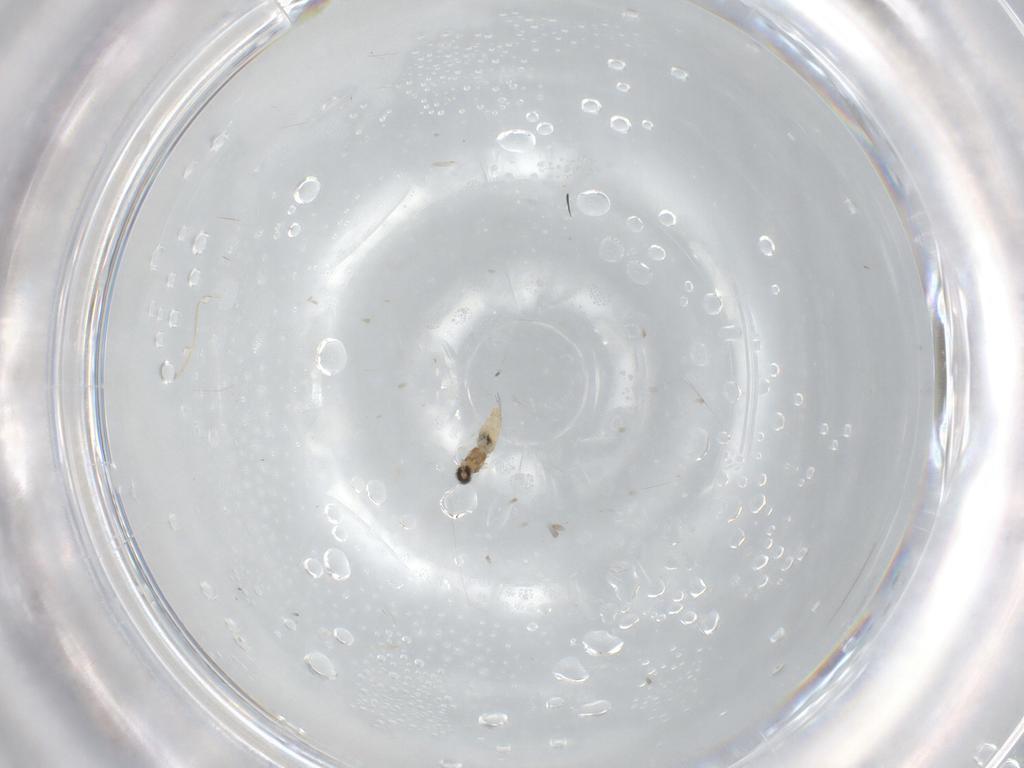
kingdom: Animalia
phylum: Arthropoda
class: Insecta
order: Diptera
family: Cecidomyiidae
